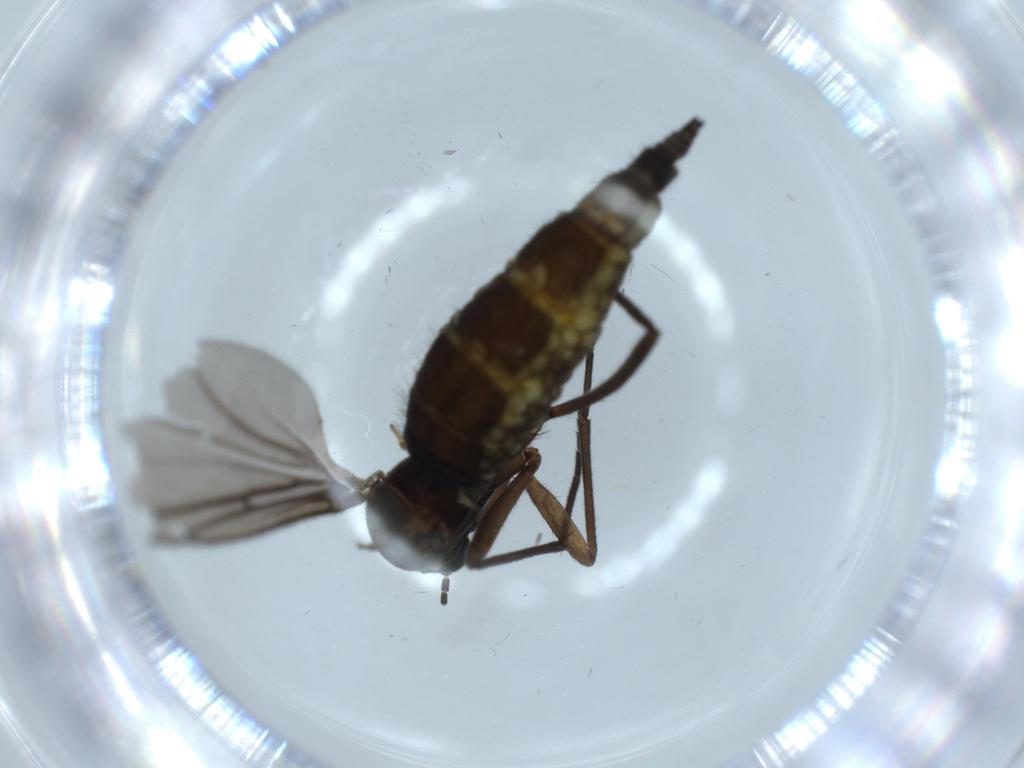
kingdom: Animalia
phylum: Arthropoda
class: Insecta
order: Diptera
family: Sciaridae
